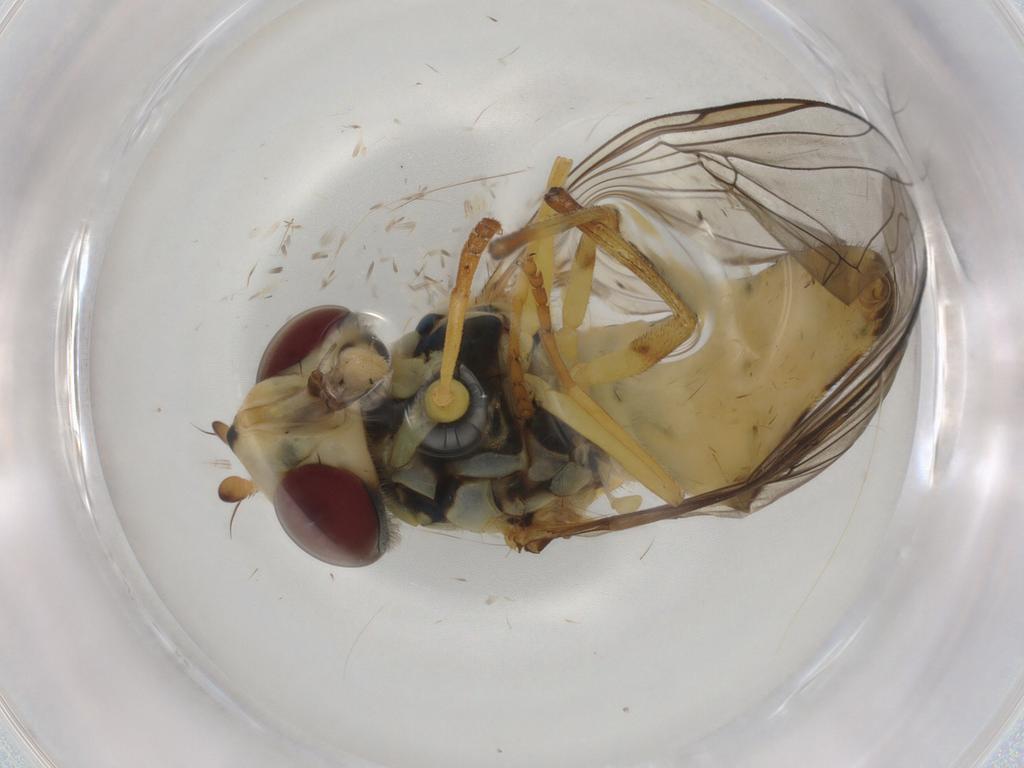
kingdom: Animalia
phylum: Arthropoda
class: Insecta
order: Diptera
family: Syrphidae
